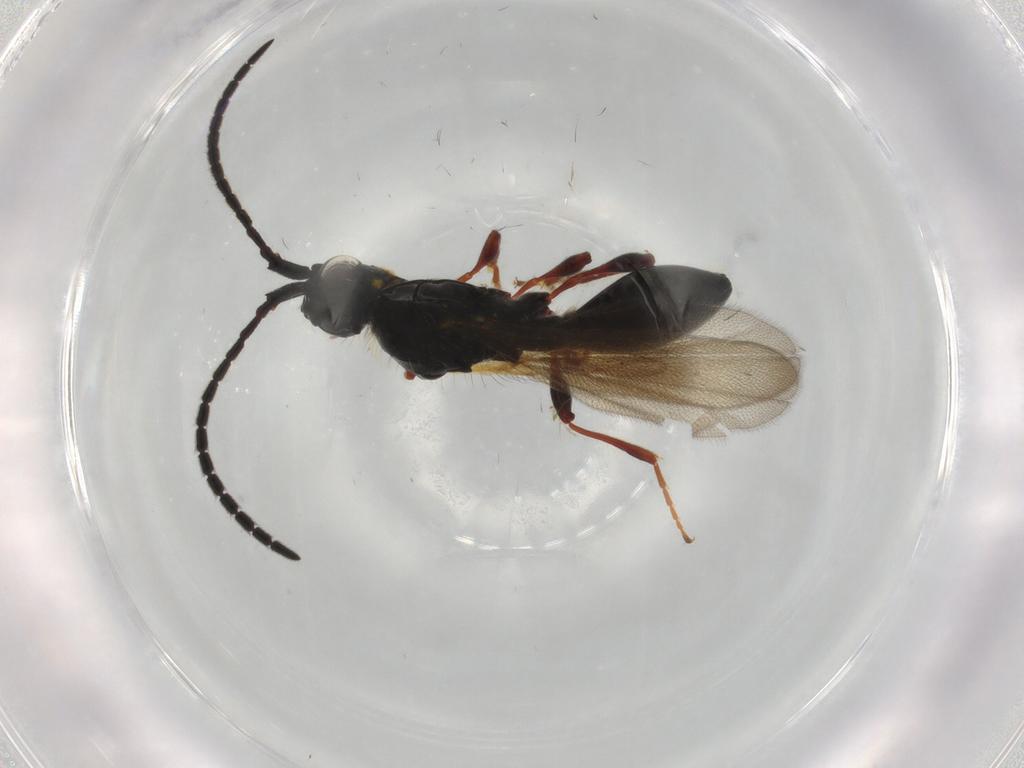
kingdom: Animalia
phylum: Arthropoda
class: Insecta
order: Hymenoptera
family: Diapriidae
